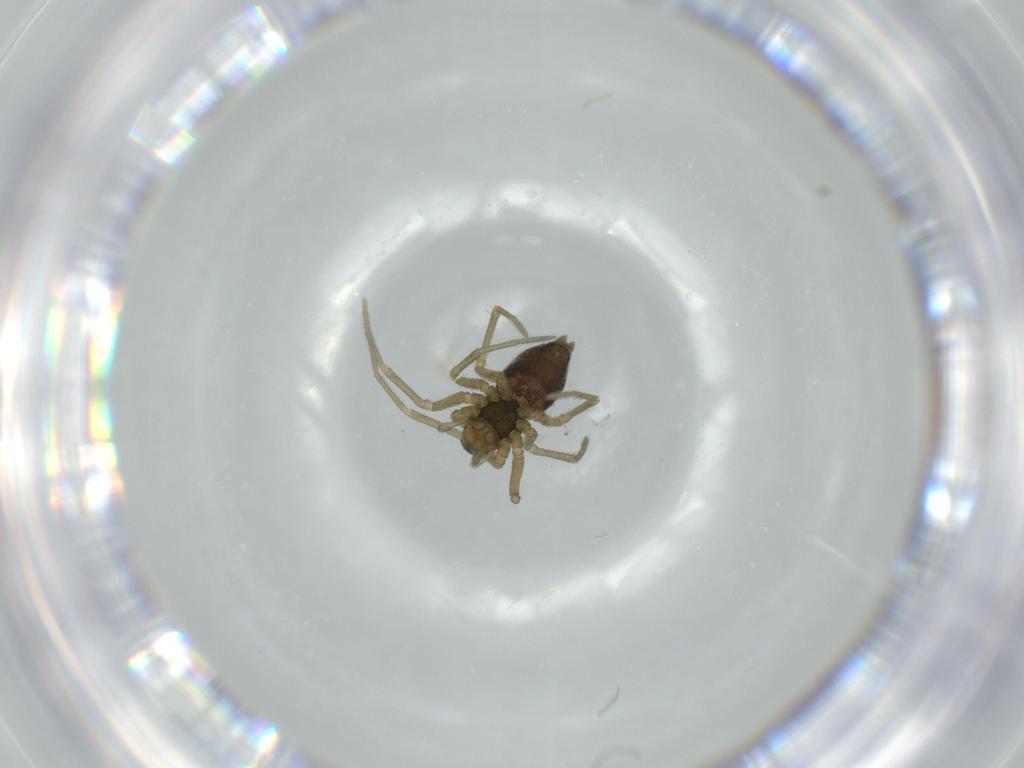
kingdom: Animalia
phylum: Arthropoda
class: Arachnida
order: Araneae
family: Linyphiidae
